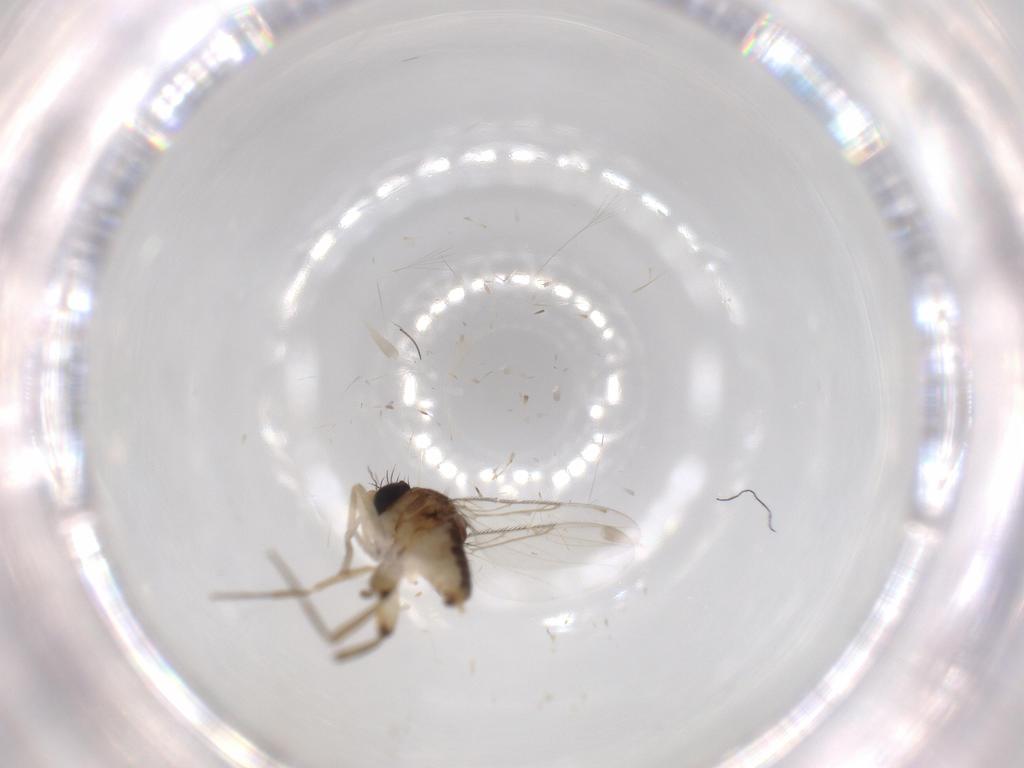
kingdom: Animalia
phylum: Arthropoda
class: Insecta
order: Diptera
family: Phoridae
